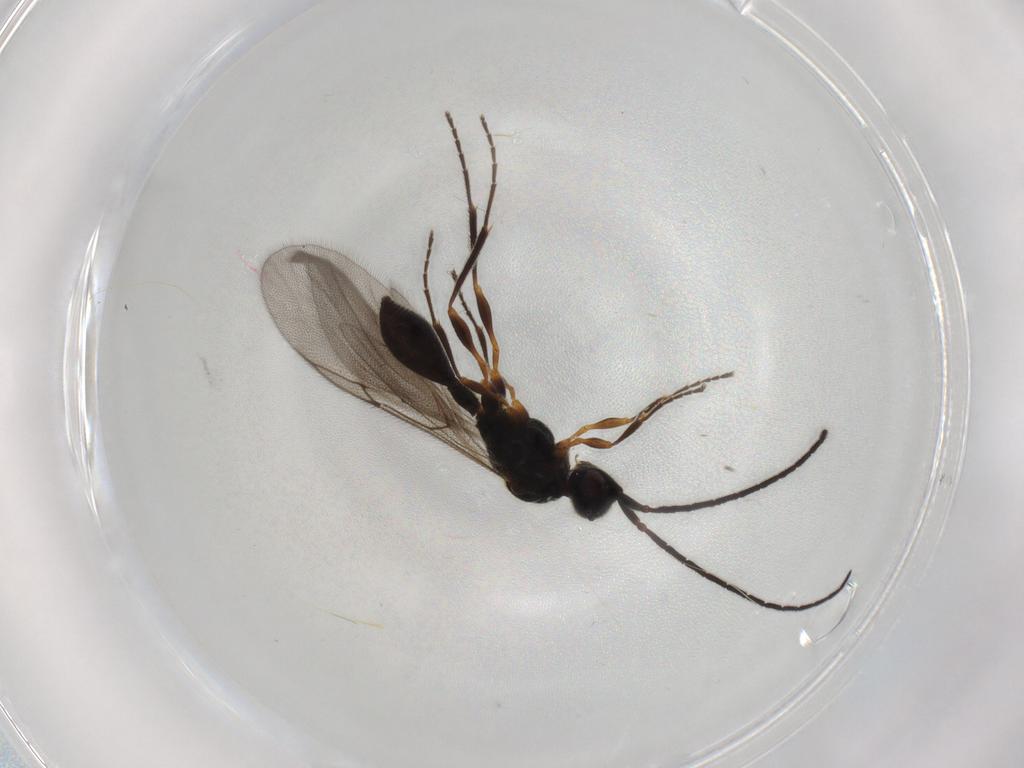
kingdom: Animalia
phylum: Arthropoda
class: Insecta
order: Hymenoptera
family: Diapriidae
